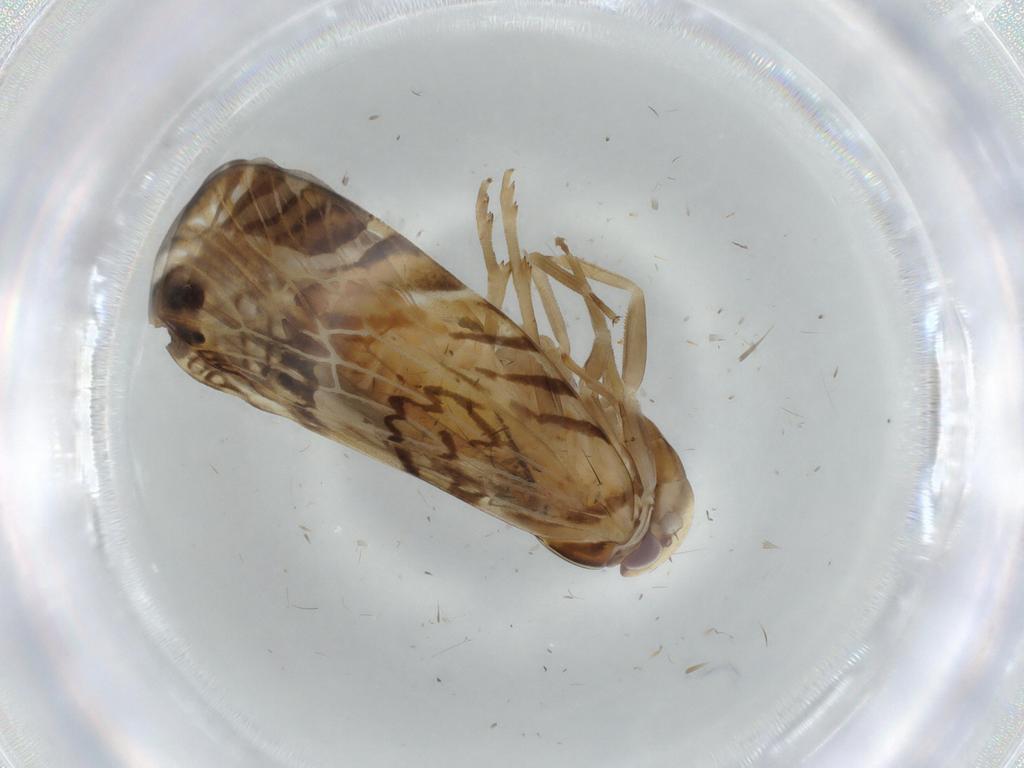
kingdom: Animalia
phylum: Arthropoda
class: Insecta
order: Hemiptera
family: Cixiidae
